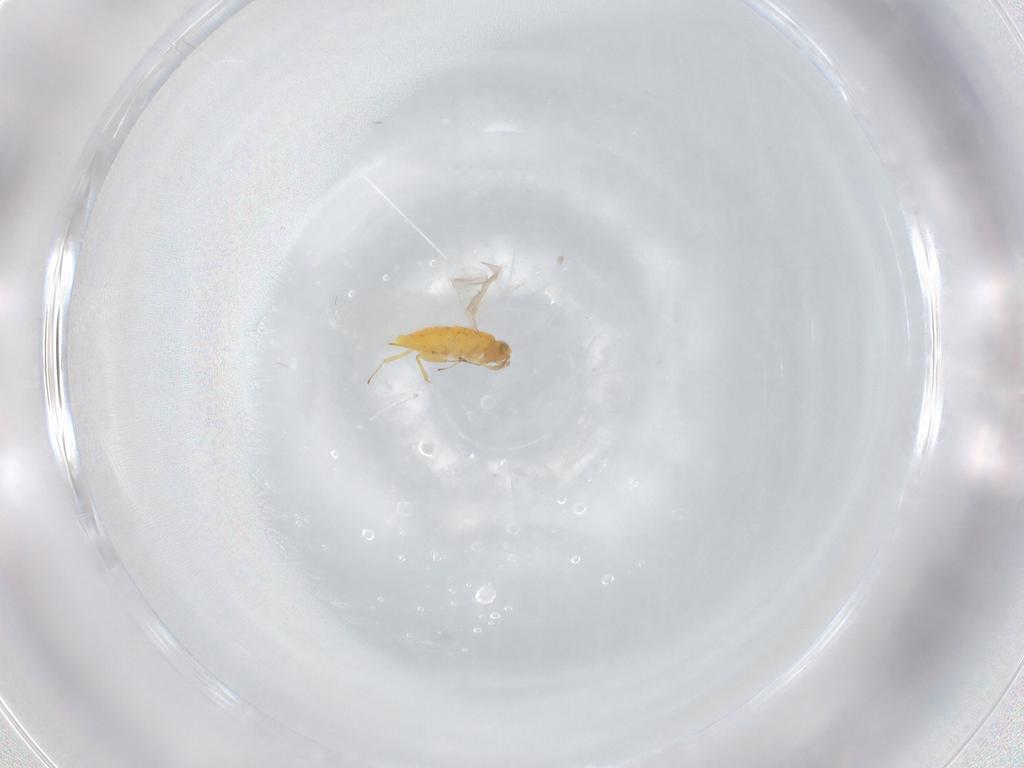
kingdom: Animalia
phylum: Arthropoda
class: Insecta
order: Hymenoptera
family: Aphelinidae
